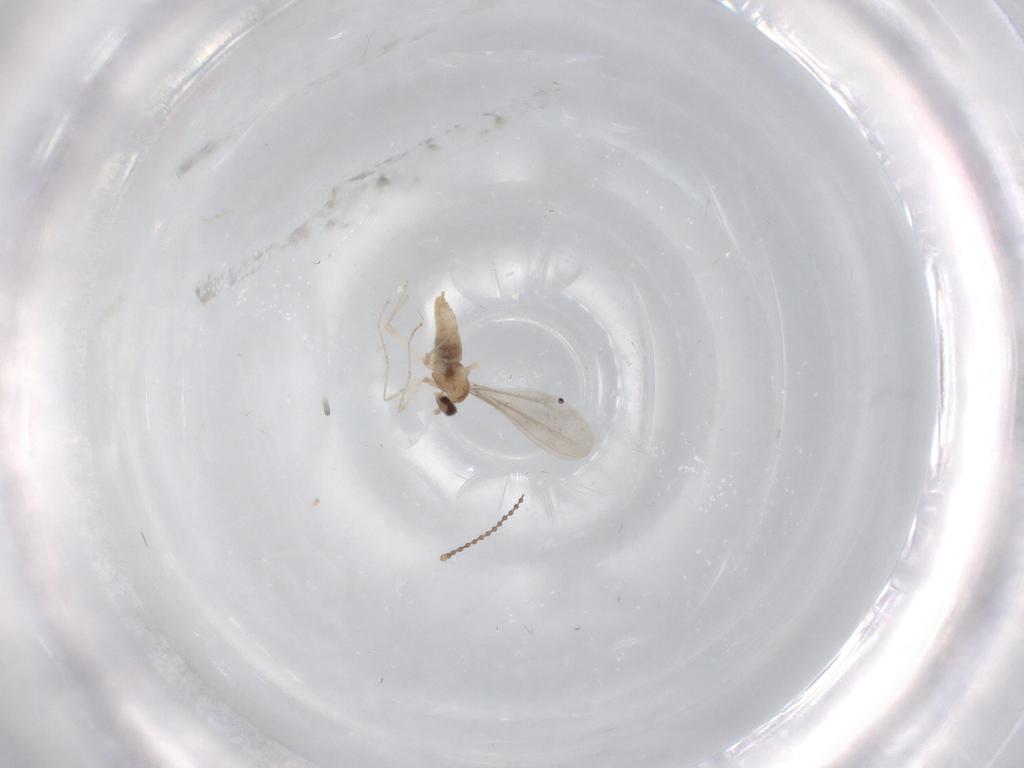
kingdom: Animalia
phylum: Arthropoda
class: Insecta
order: Diptera
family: Cecidomyiidae
